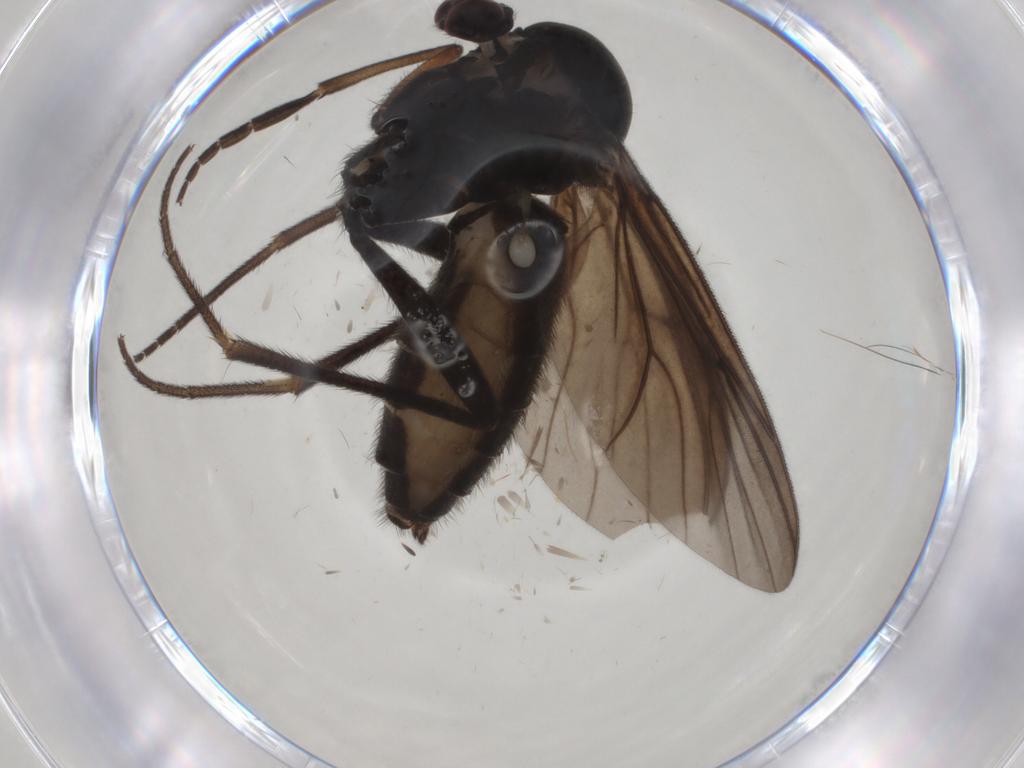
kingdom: Animalia
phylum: Arthropoda
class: Insecta
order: Diptera
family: Mycetophilidae
